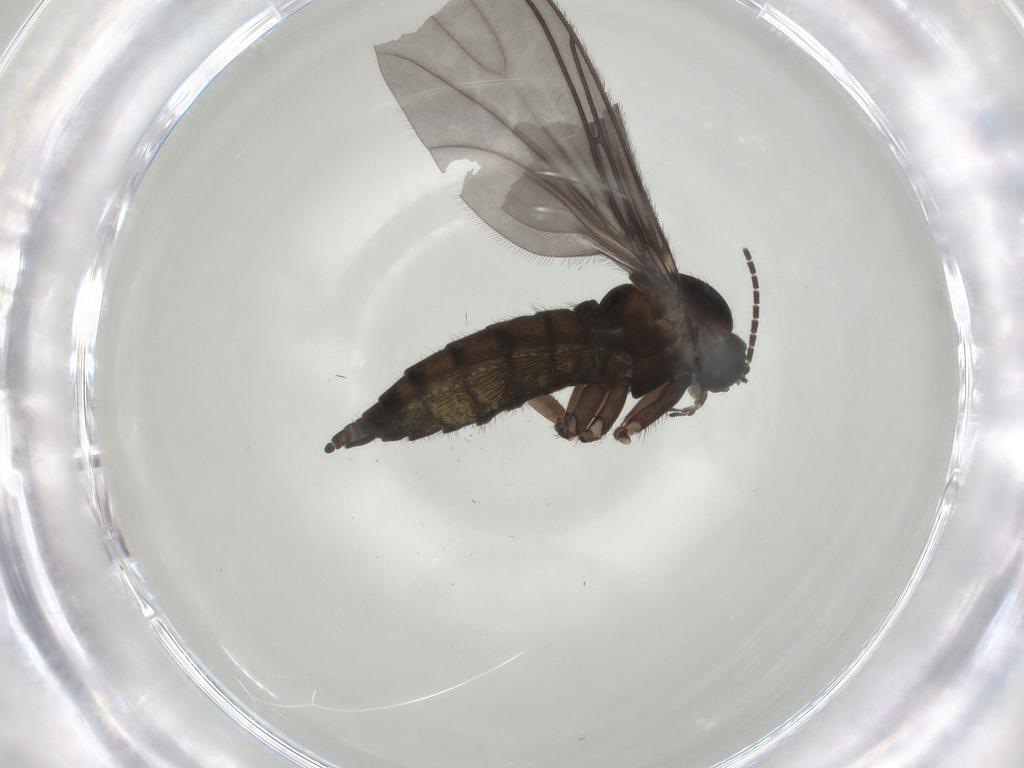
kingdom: Animalia
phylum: Arthropoda
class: Insecta
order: Diptera
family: Sciaridae
